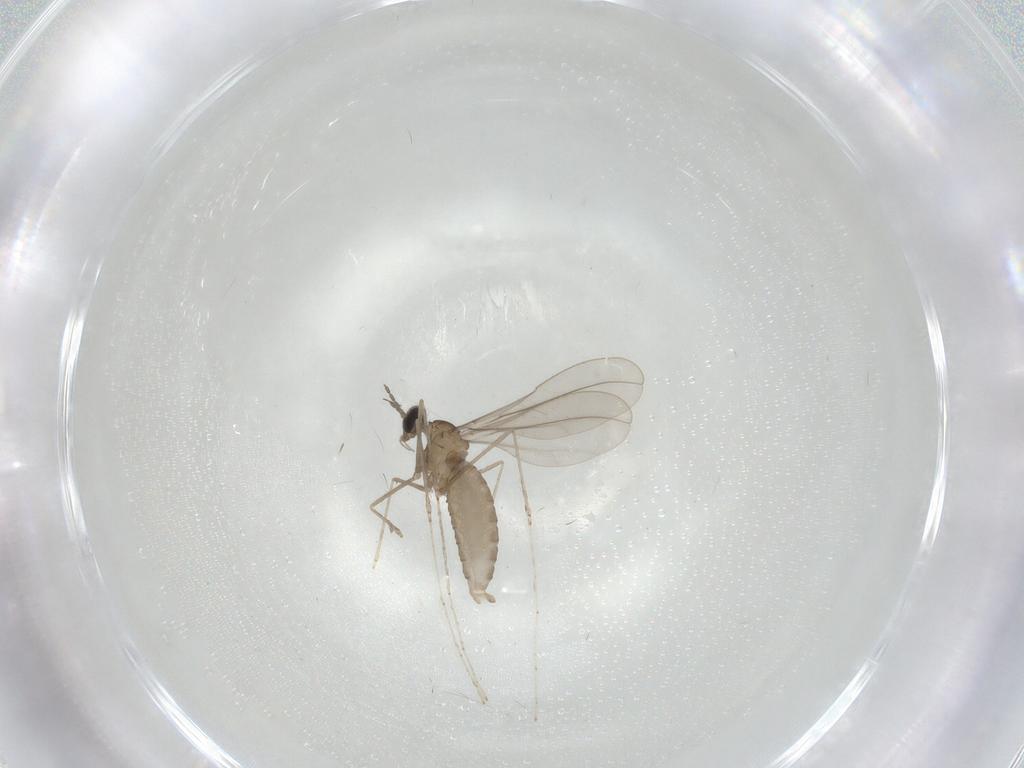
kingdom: Animalia
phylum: Arthropoda
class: Insecta
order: Diptera
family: Cecidomyiidae
